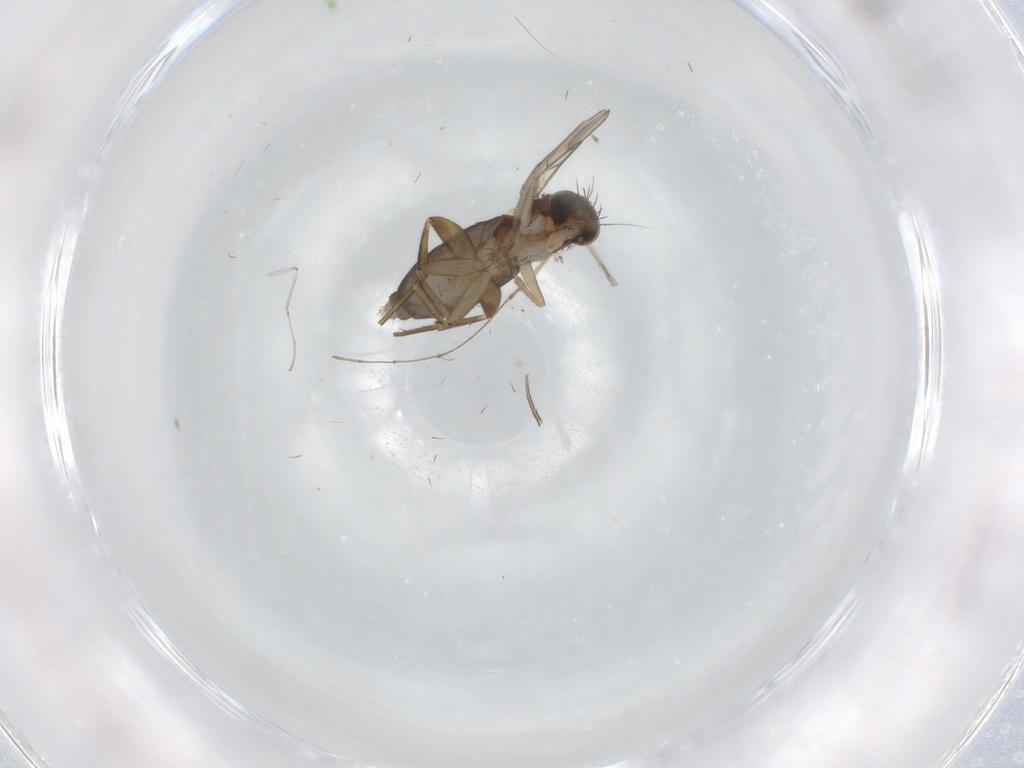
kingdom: Animalia
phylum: Arthropoda
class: Insecta
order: Diptera
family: Phoridae
